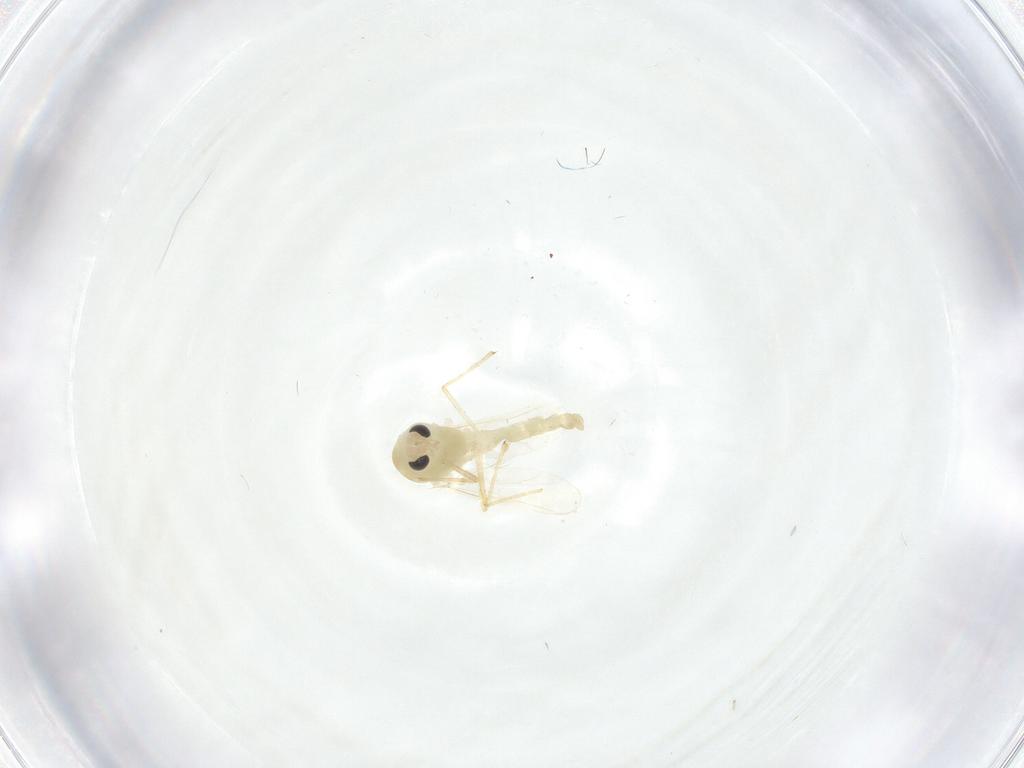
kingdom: Animalia
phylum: Arthropoda
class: Insecta
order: Diptera
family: Chironomidae
